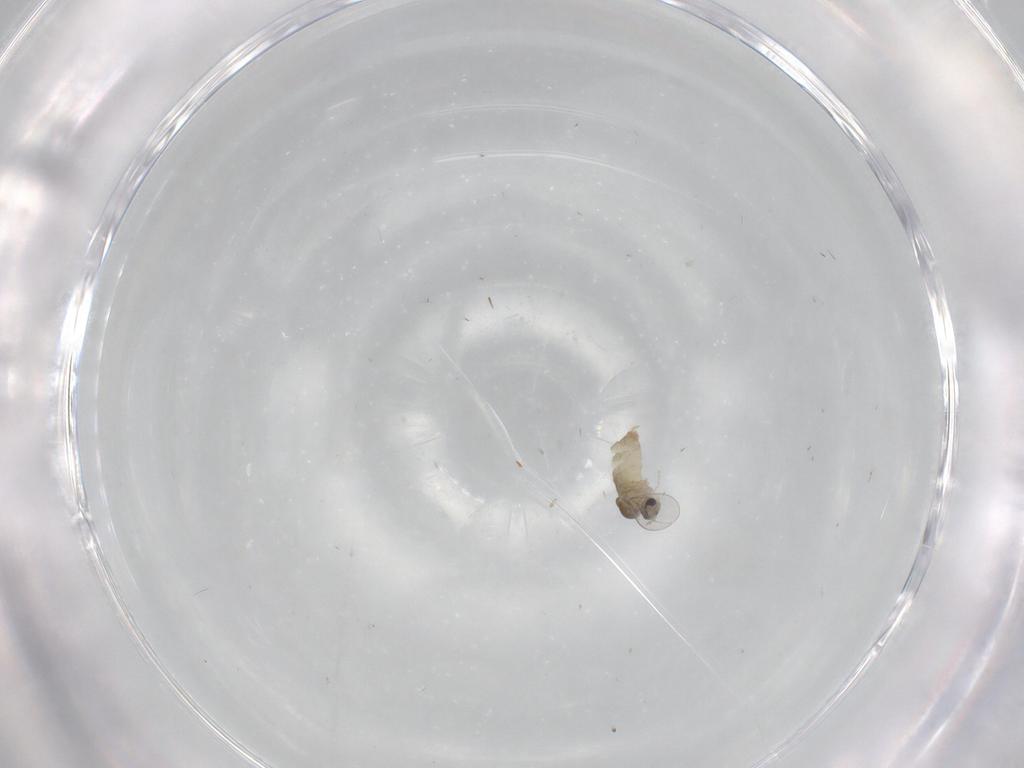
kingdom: Animalia
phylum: Arthropoda
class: Insecta
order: Diptera
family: Cecidomyiidae
